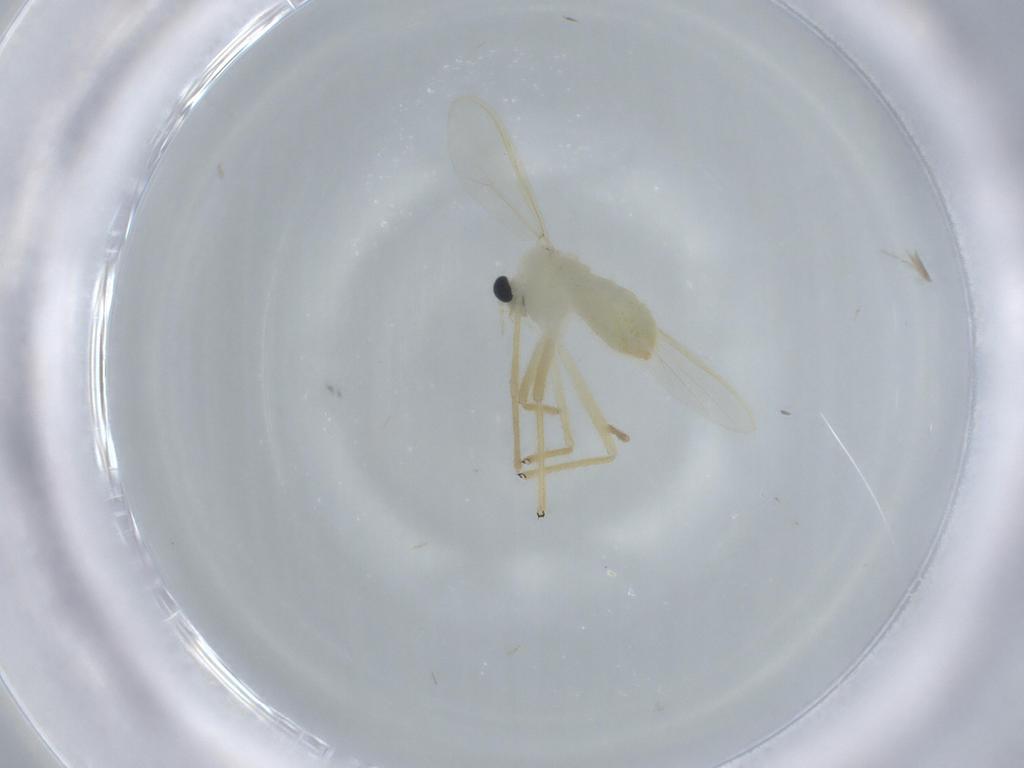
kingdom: Animalia
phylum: Arthropoda
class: Insecta
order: Diptera
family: Chironomidae
